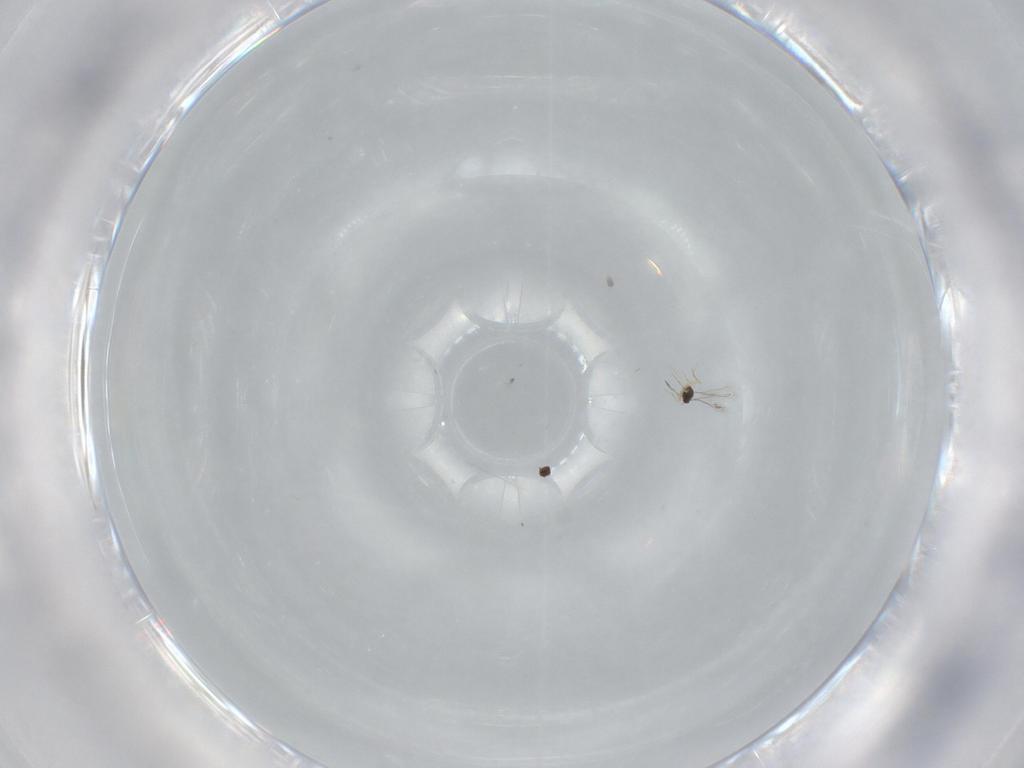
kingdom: Animalia
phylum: Arthropoda
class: Insecta
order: Hymenoptera
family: Mymaridae
